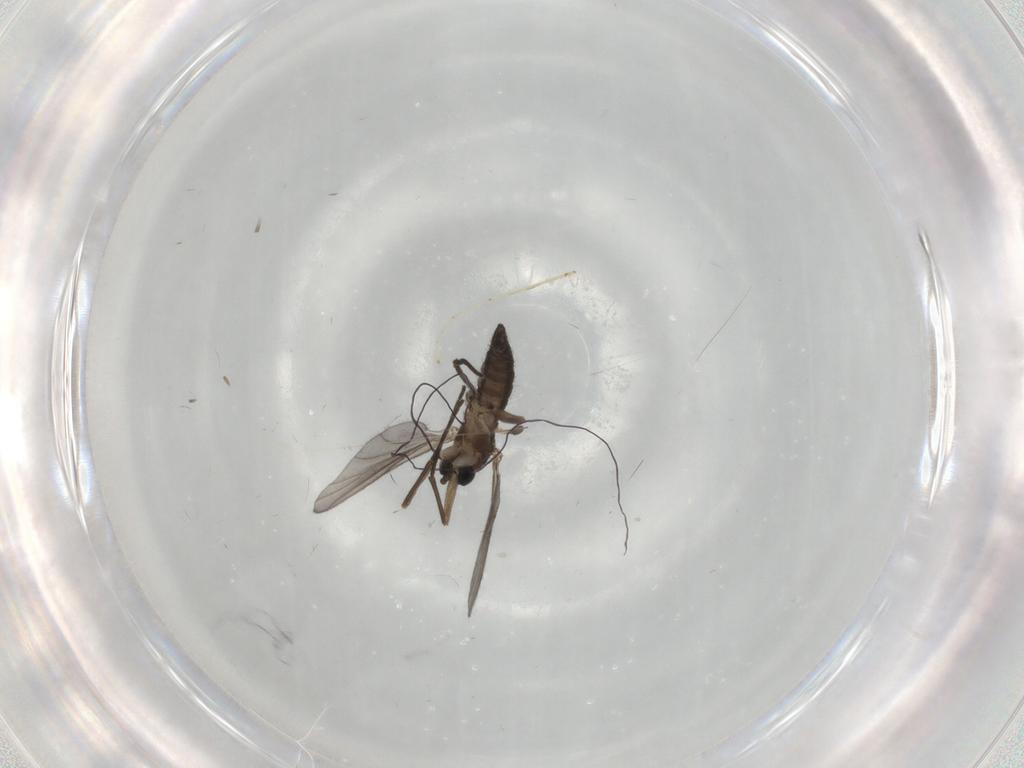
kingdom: Animalia
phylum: Arthropoda
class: Insecta
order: Diptera
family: Sciaridae
